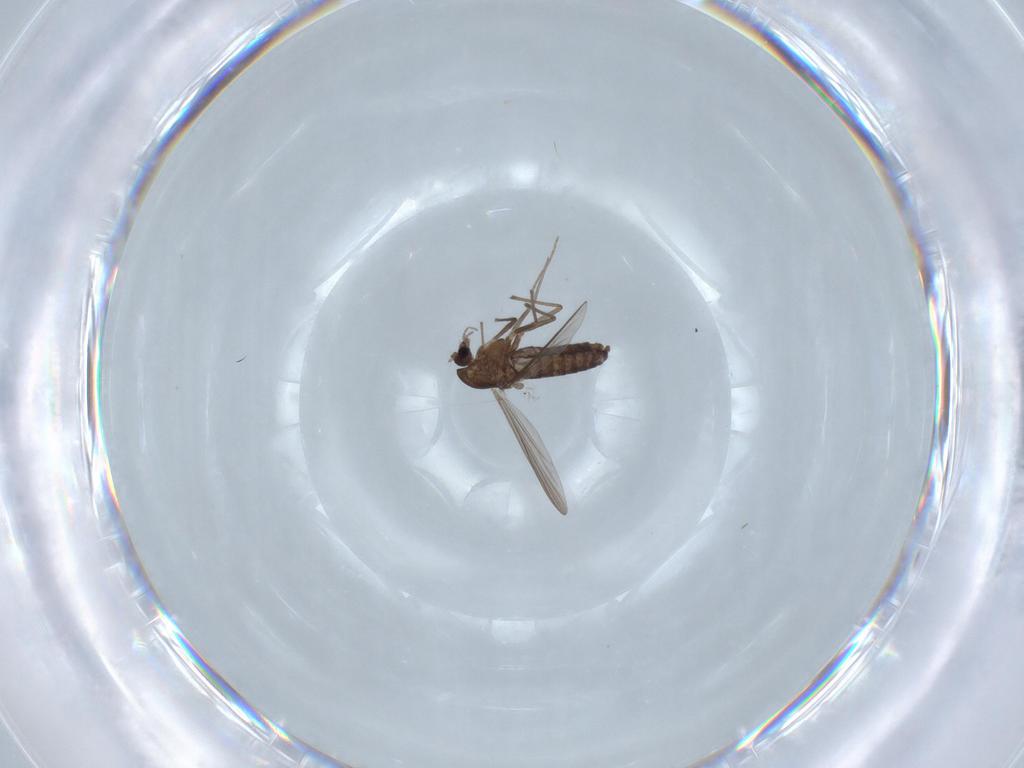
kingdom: Animalia
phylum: Arthropoda
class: Insecta
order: Diptera
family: Chironomidae
